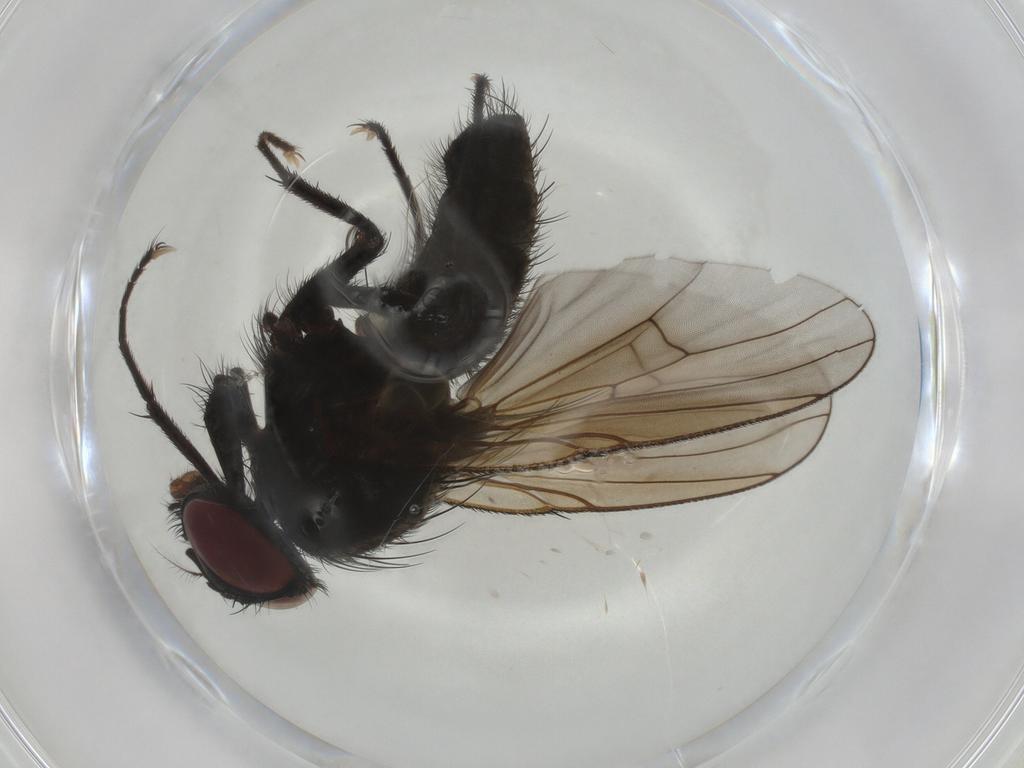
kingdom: Animalia
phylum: Arthropoda
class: Insecta
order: Diptera
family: Muscidae
